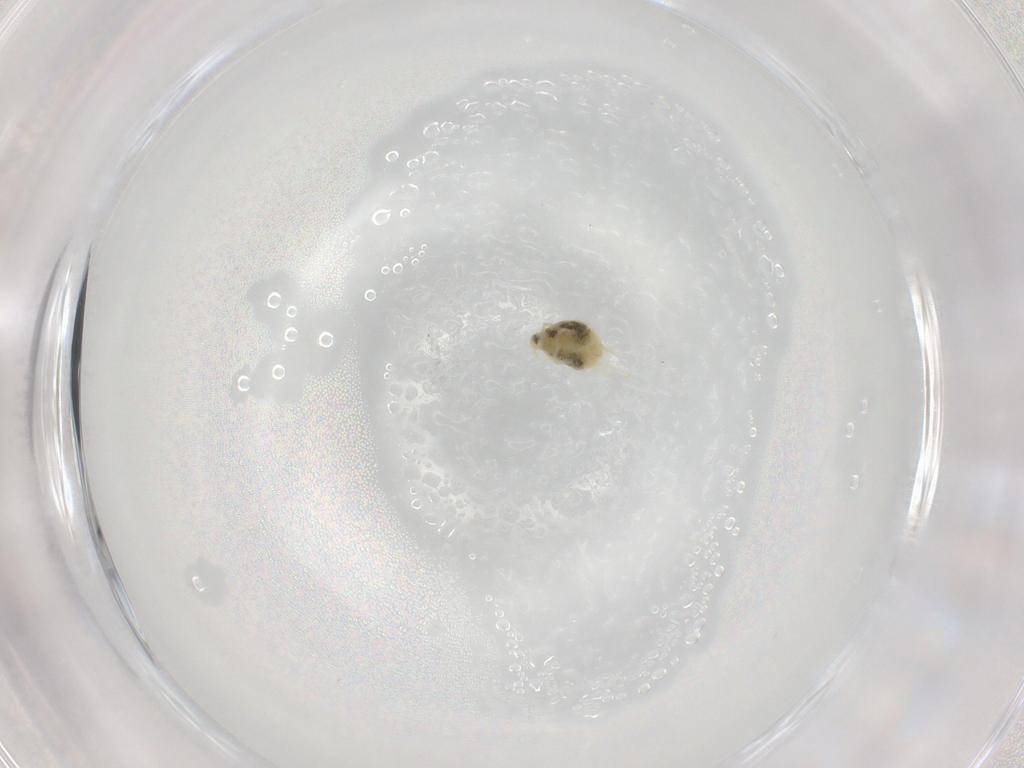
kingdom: Animalia
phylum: Arthropoda
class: Arachnida
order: Trombidiformes
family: Tetranychidae
